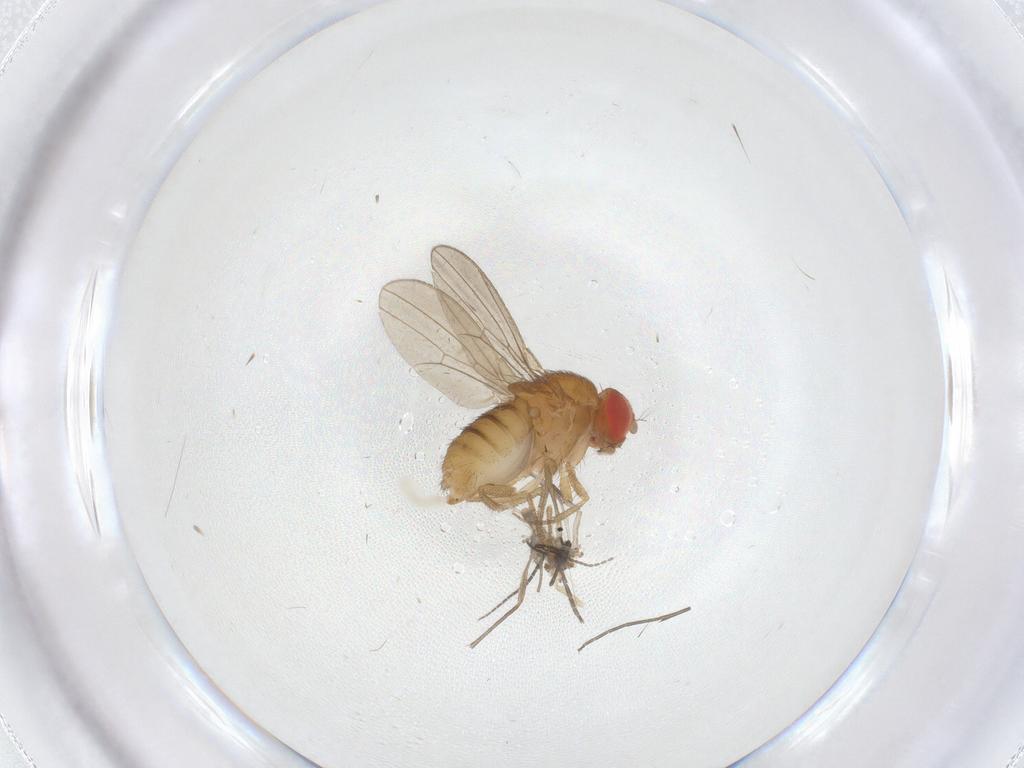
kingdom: Animalia
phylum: Arthropoda
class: Insecta
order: Diptera
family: Drosophilidae
